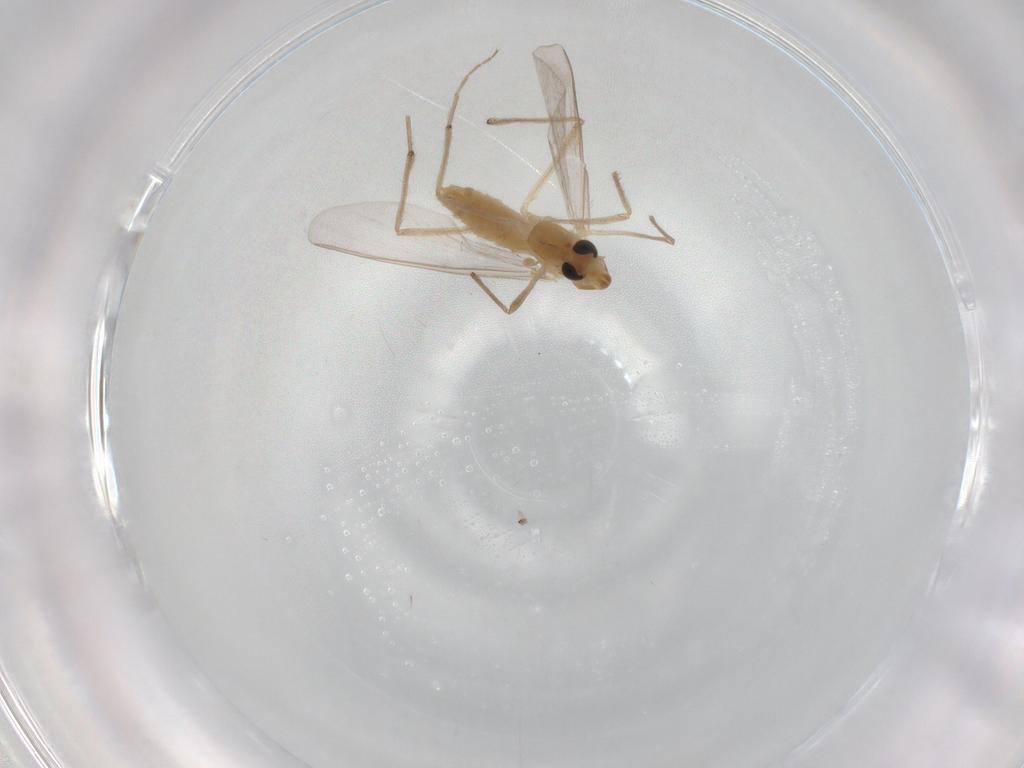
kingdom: Animalia
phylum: Arthropoda
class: Insecta
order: Diptera
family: Chironomidae
